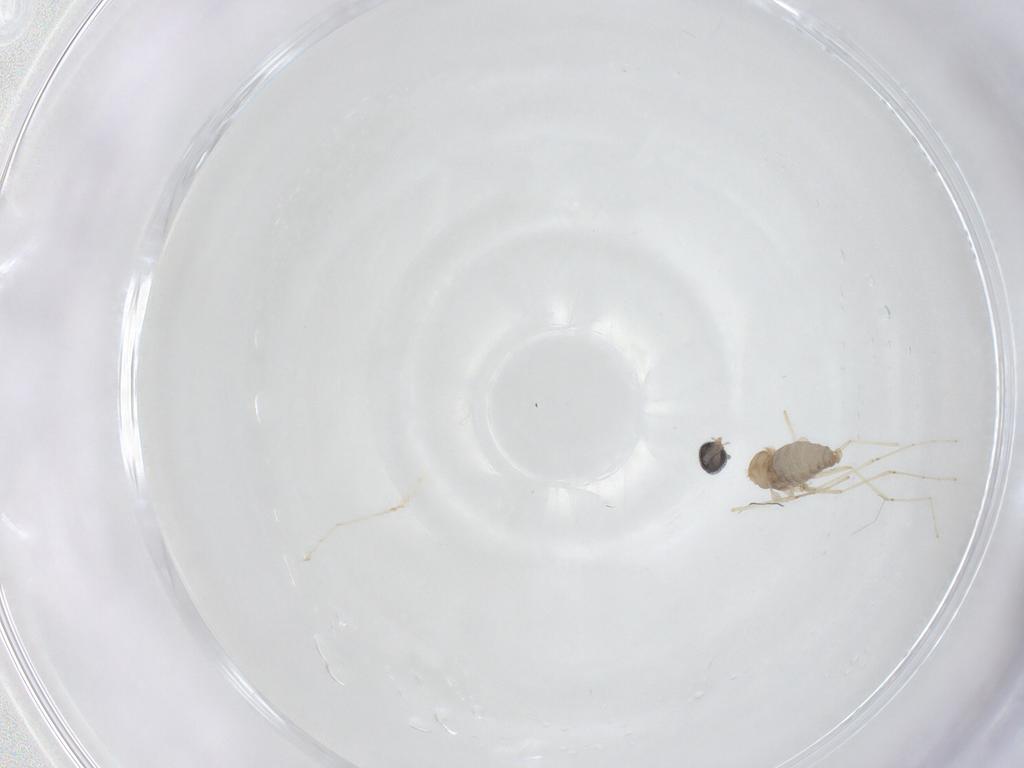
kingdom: Animalia
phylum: Arthropoda
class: Insecta
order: Diptera
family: Cecidomyiidae
